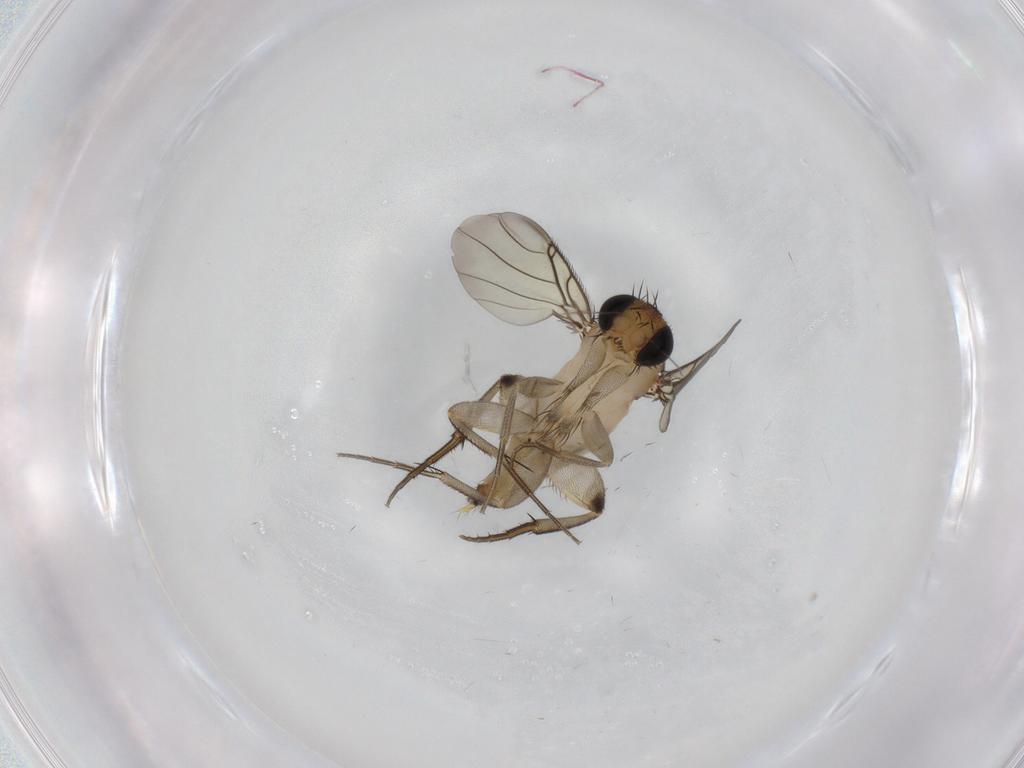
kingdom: Animalia
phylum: Arthropoda
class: Insecta
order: Diptera
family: Phoridae
